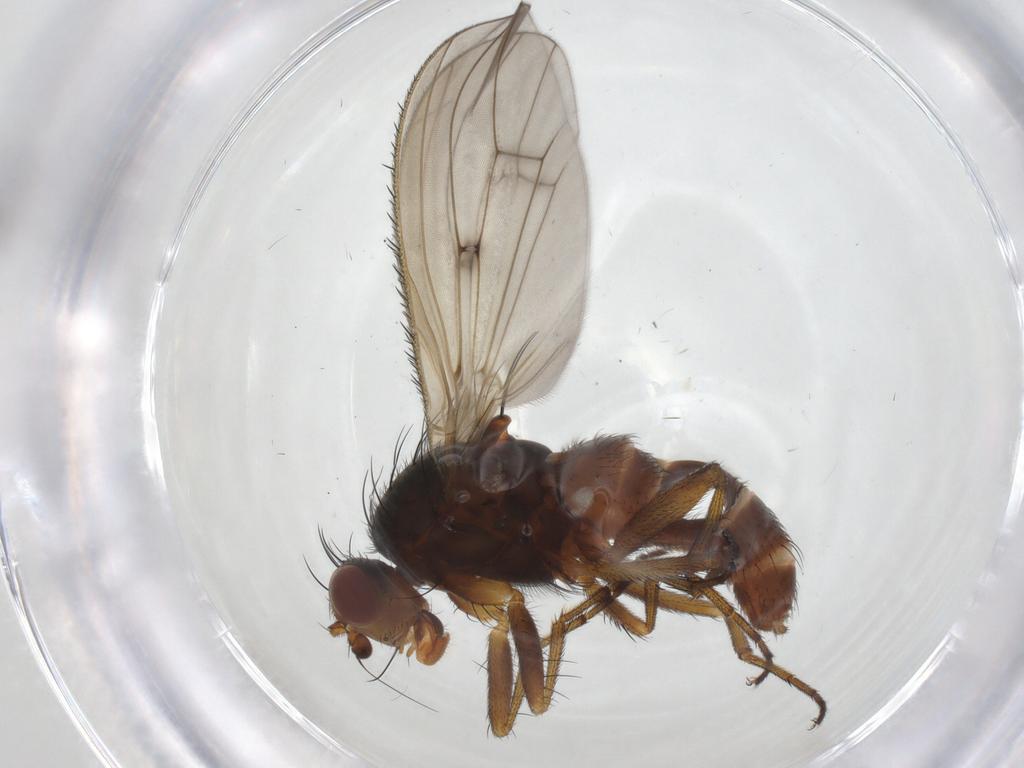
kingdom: Animalia
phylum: Arthropoda
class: Insecta
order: Diptera
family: Heleomyzidae
